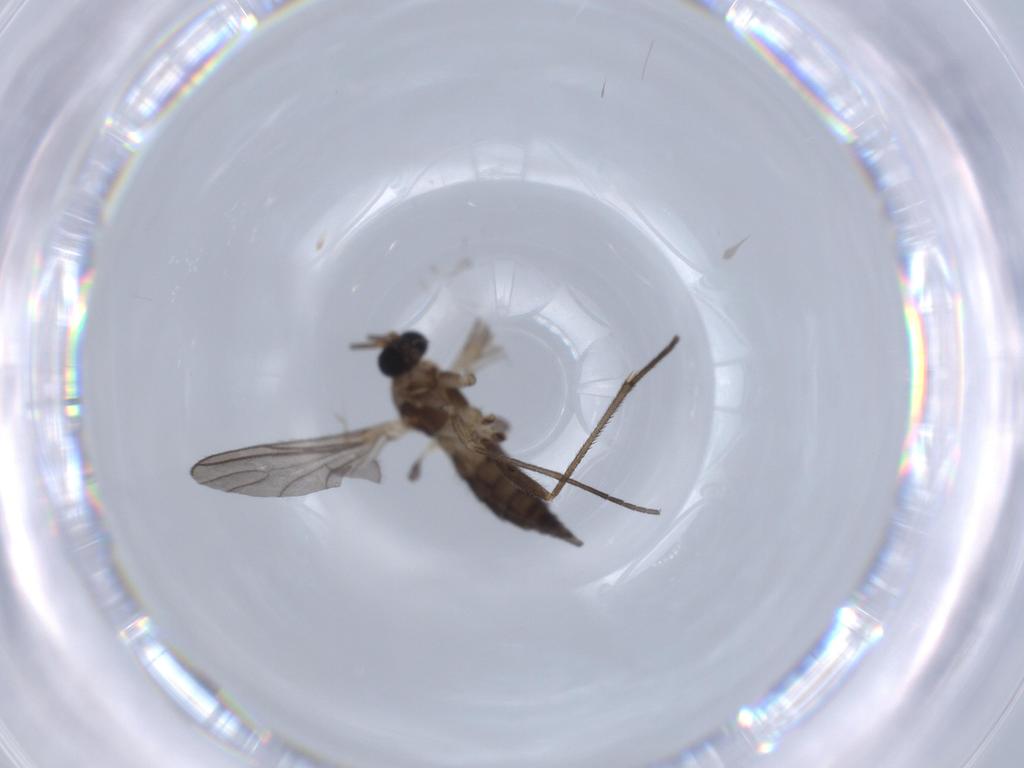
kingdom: Animalia
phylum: Arthropoda
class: Insecta
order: Diptera
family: Sciaridae
